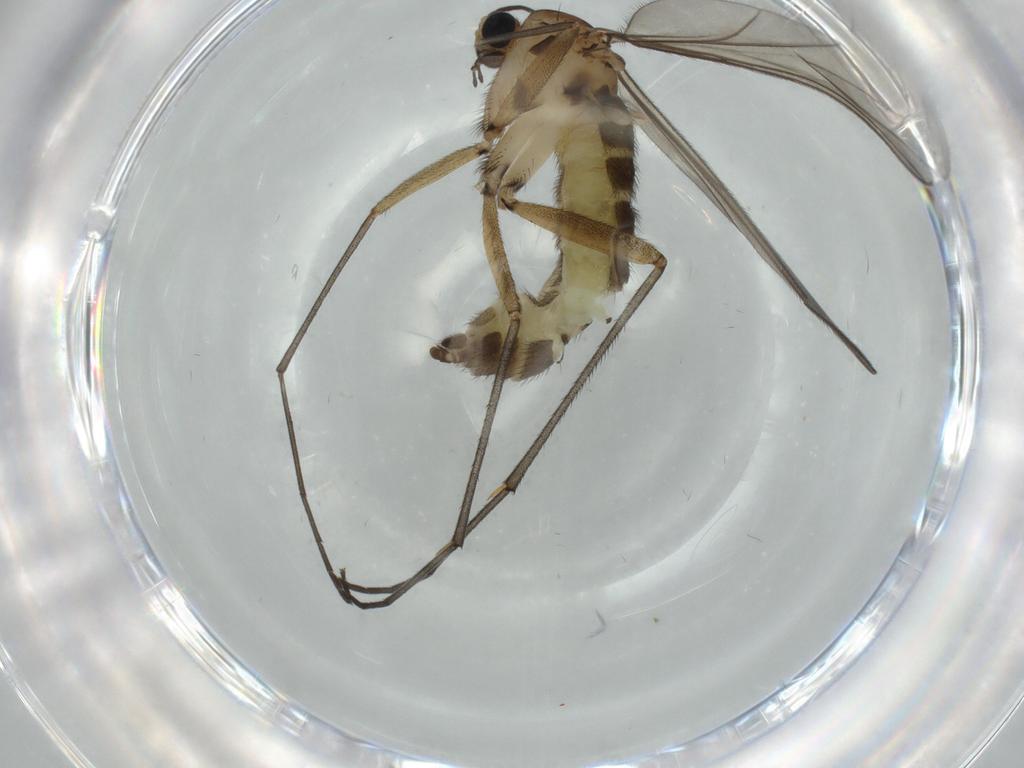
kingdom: Animalia
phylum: Arthropoda
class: Insecta
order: Diptera
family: Sciaridae
